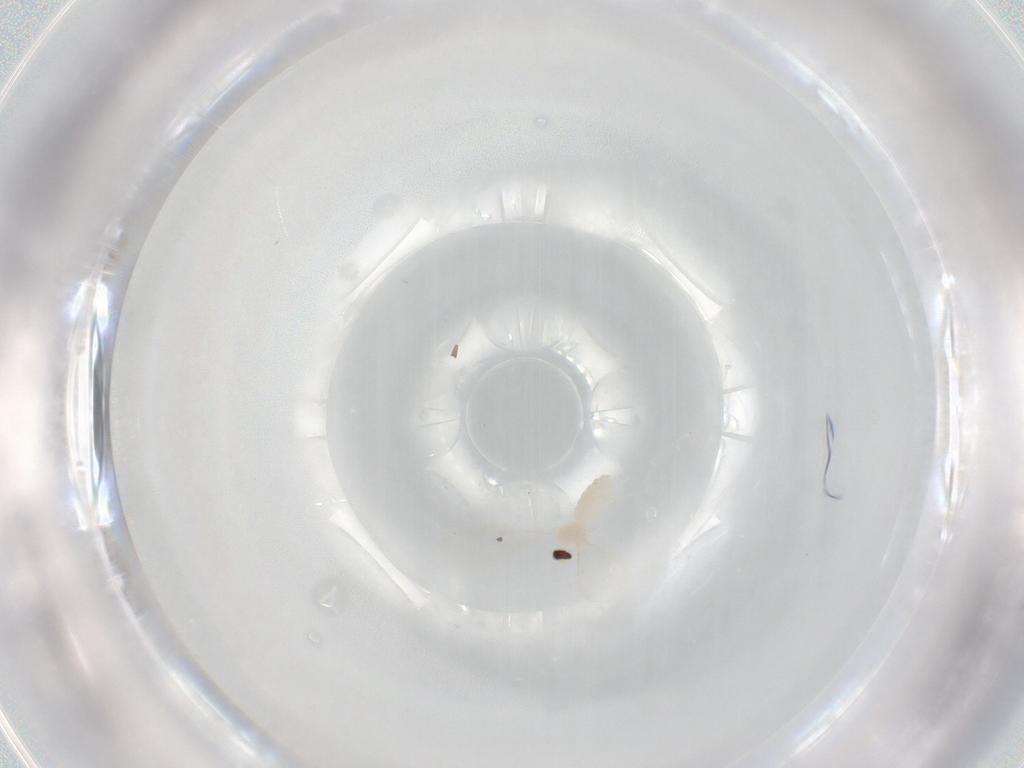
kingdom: Animalia
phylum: Arthropoda
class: Insecta
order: Diptera
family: Cecidomyiidae
